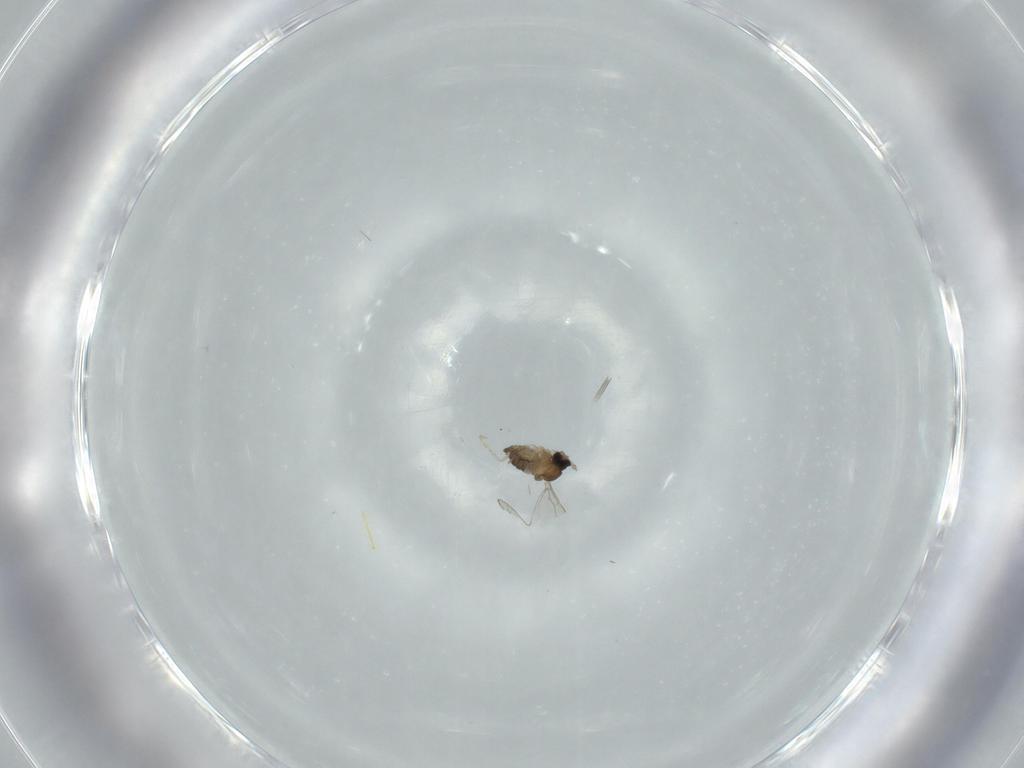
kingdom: Animalia
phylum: Arthropoda
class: Insecta
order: Diptera
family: Cecidomyiidae
